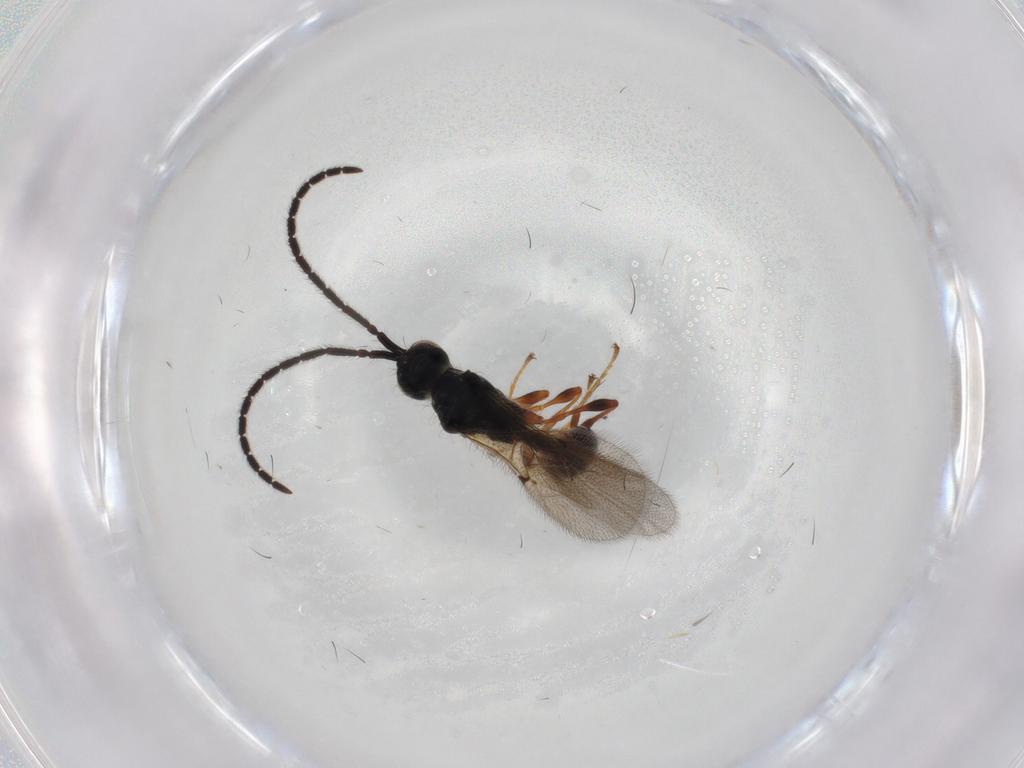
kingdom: Animalia
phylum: Arthropoda
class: Insecta
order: Hymenoptera
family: Diapriidae
